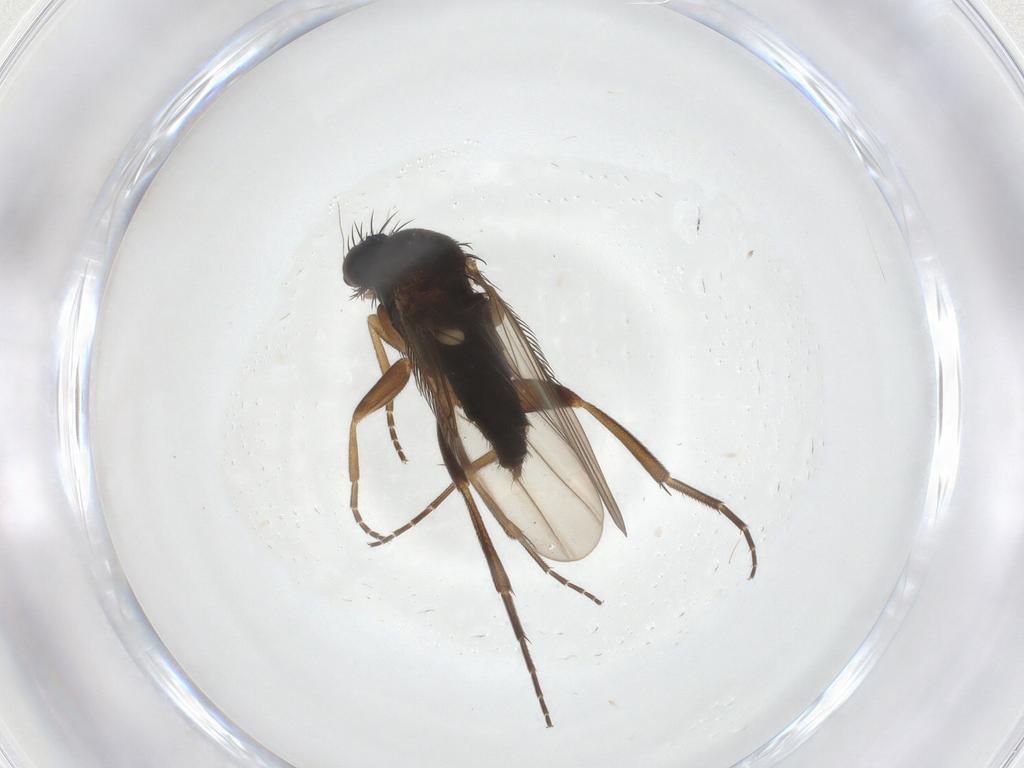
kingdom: Animalia
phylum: Arthropoda
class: Insecta
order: Diptera
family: Phoridae
